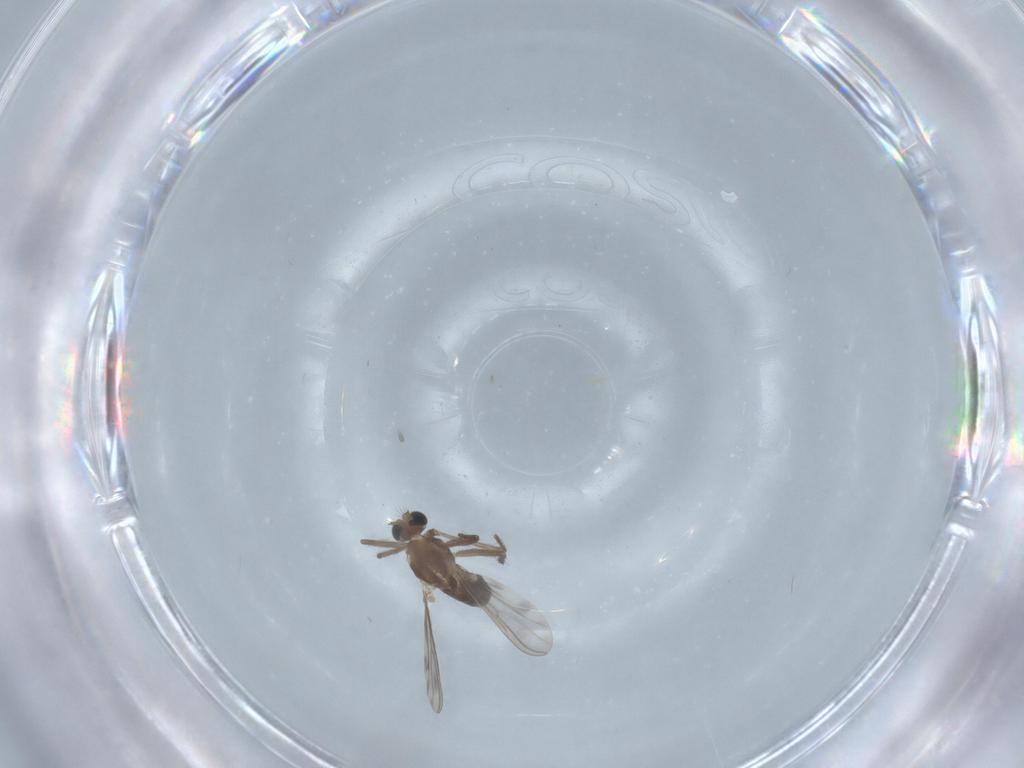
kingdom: Animalia
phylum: Arthropoda
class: Insecta
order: Diptera
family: Chironomidae
